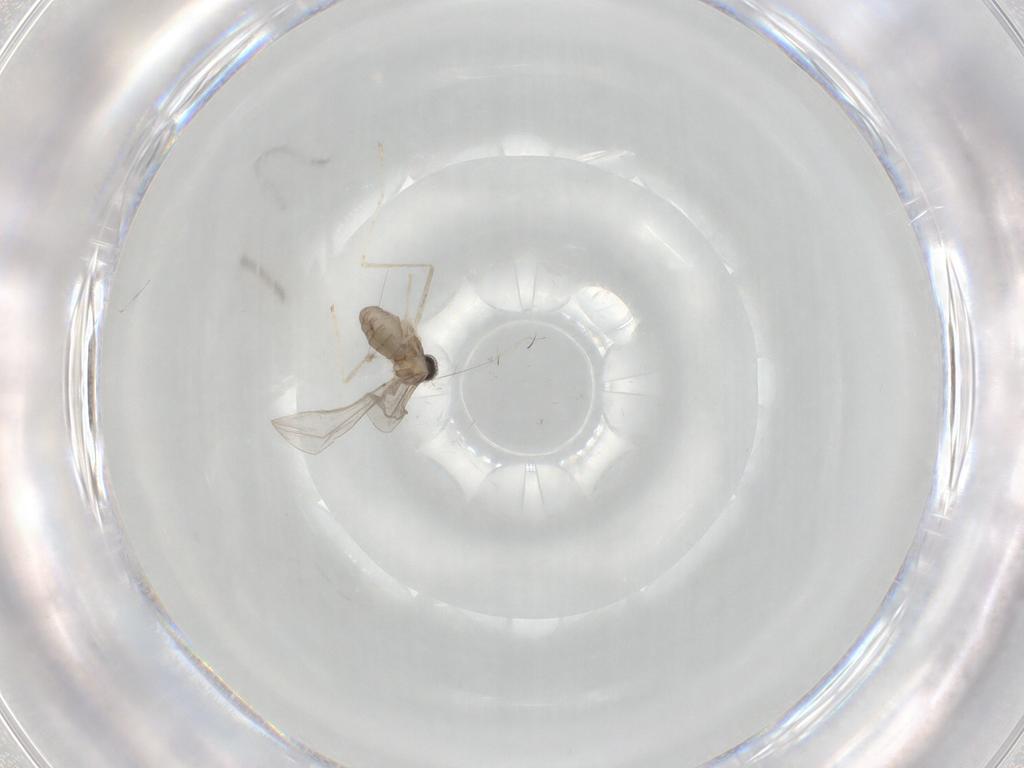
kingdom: Animalia
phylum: Arthropoda
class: Insecta
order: Diptera
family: Cecidomyiidae
